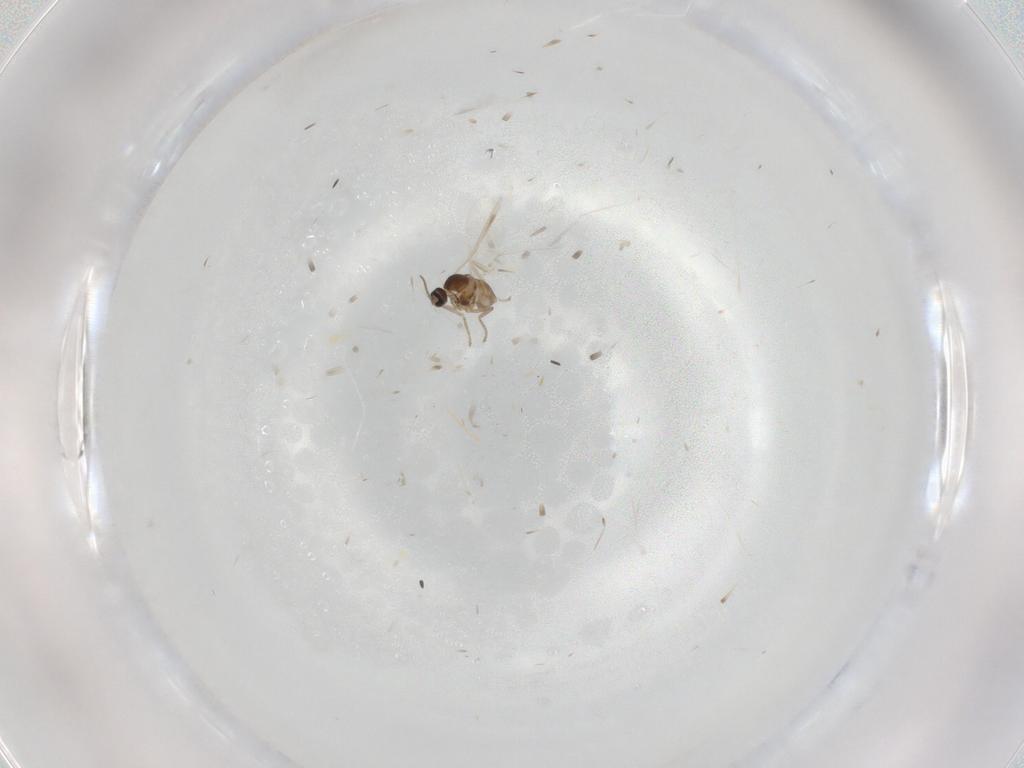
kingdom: Animalia
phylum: Arthropoda
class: Insecta
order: Diptera
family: Cecidomyiidae
